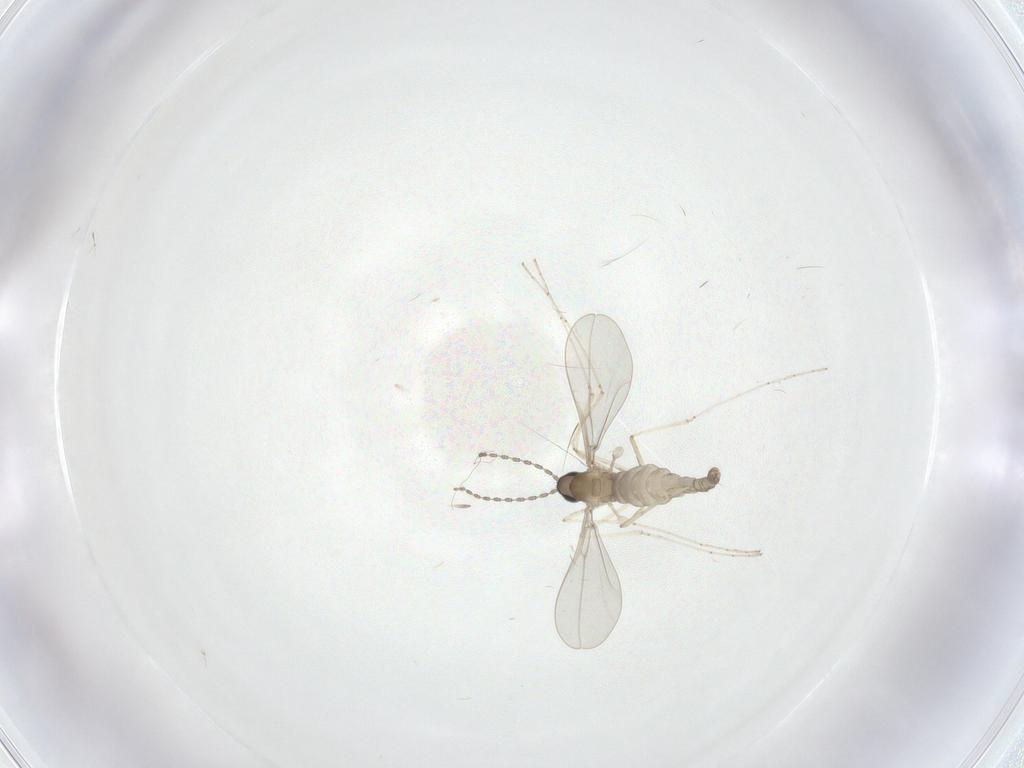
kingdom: Animalia
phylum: Arthropoda
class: Insecta
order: Diptera
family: Cecidomyiidae
